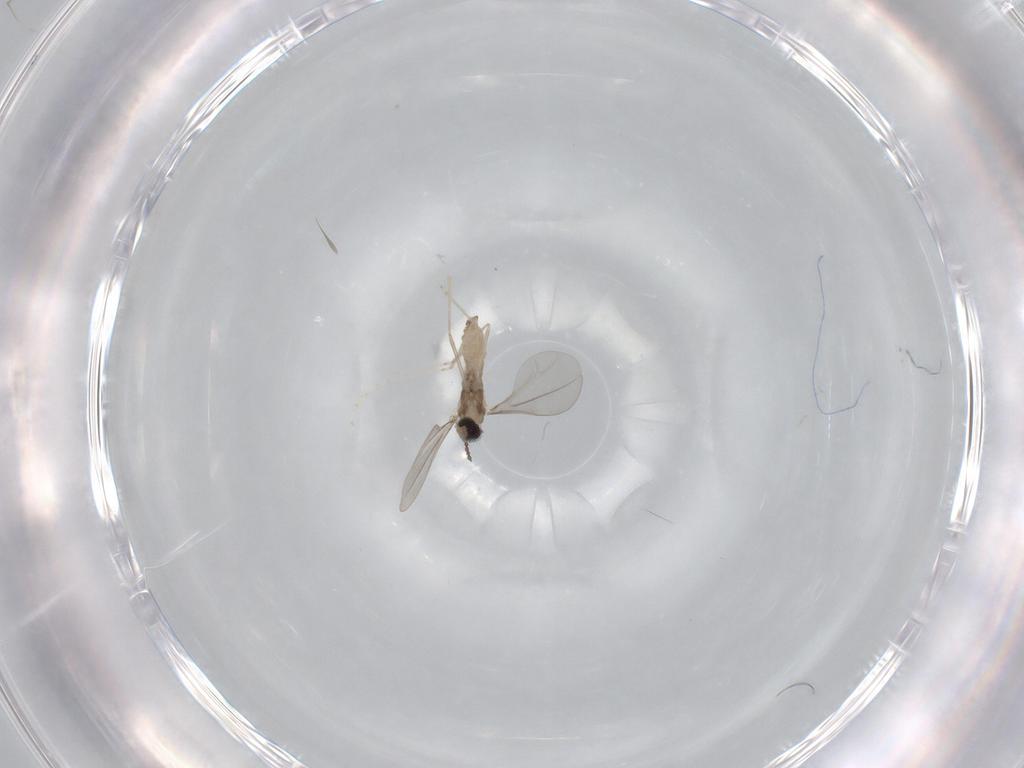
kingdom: Animalia
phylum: Arthropoda
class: Insecta
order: Diptera
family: Cecidomyiidae
